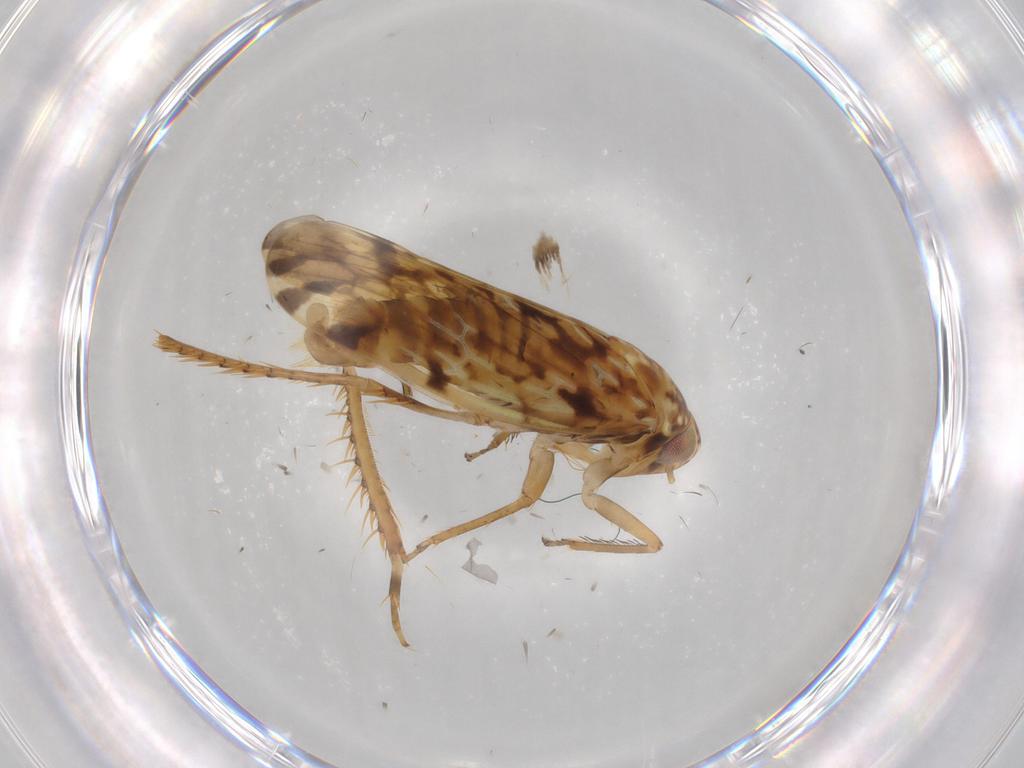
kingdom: Animalia
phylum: Arthropoda
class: Insecta
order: Hemiptera
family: Cicadellidae
